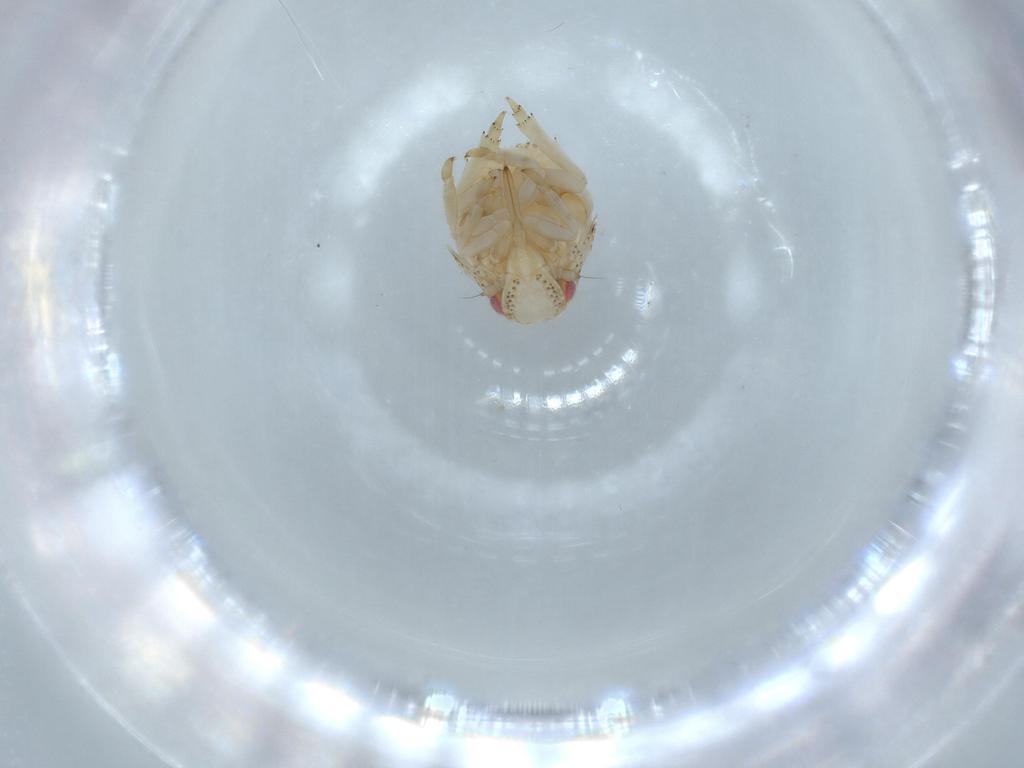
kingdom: Animalia
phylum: Arthropoda
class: Insecta
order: Hemiptera
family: Acanaloniidae
